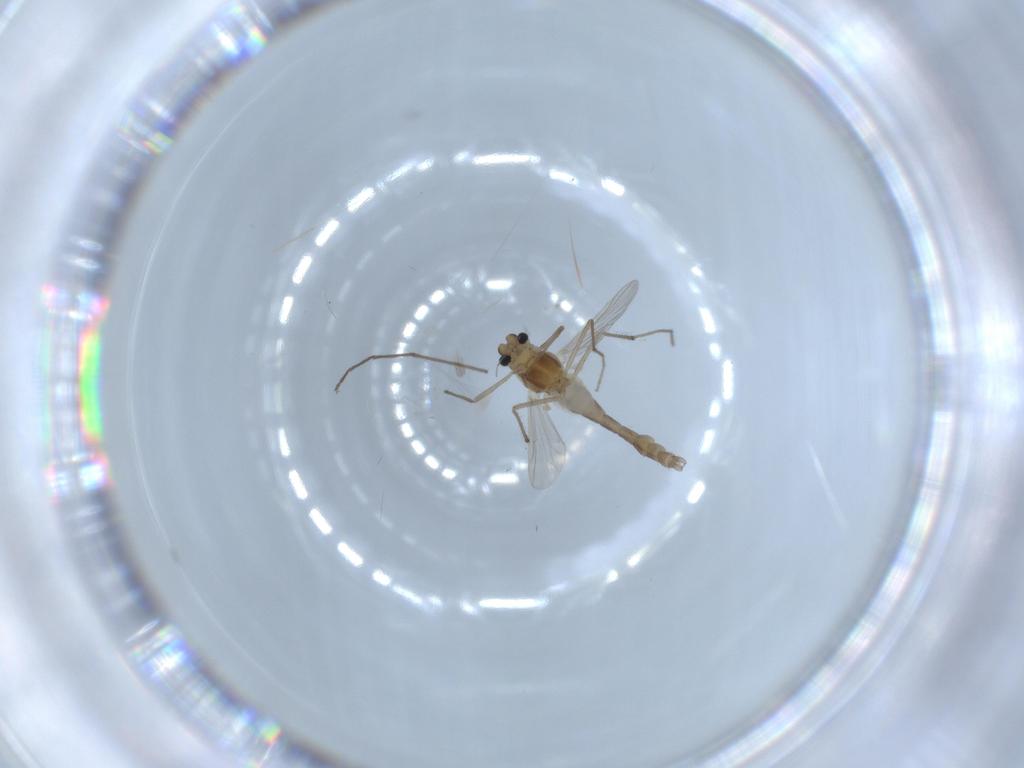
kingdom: Animalia
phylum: Arthropoda
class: Insecta
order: Diptera
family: Chironomidae
